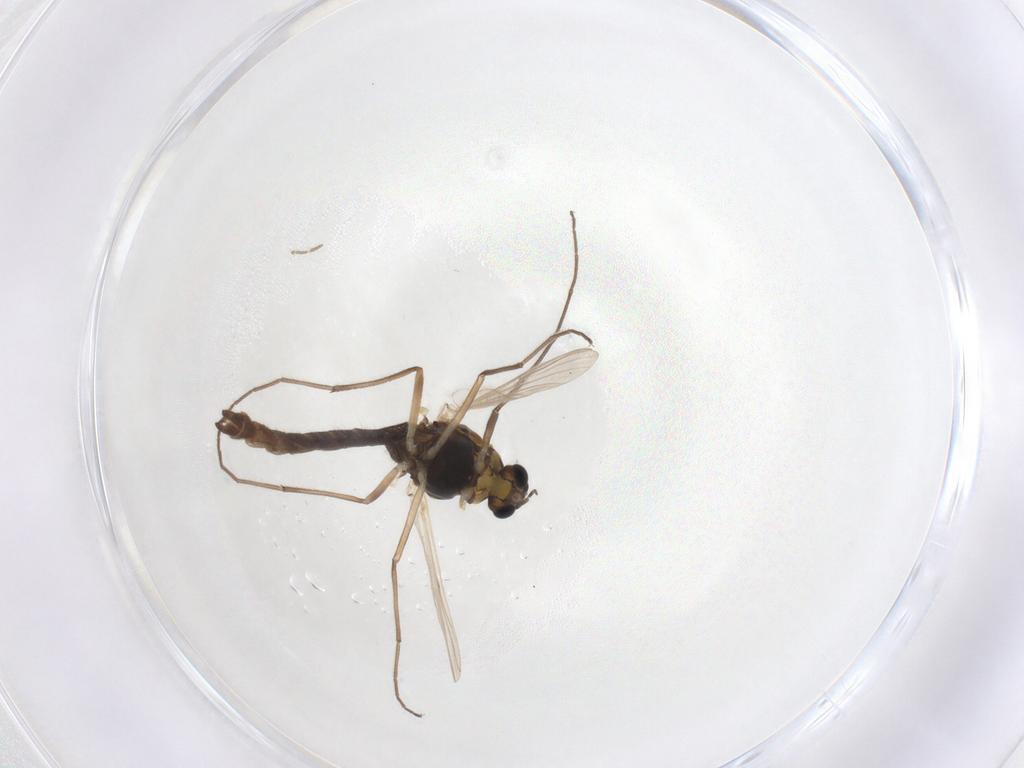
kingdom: Animalia
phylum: Arthropoda
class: Insecta
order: Diptera
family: Chironomidae
